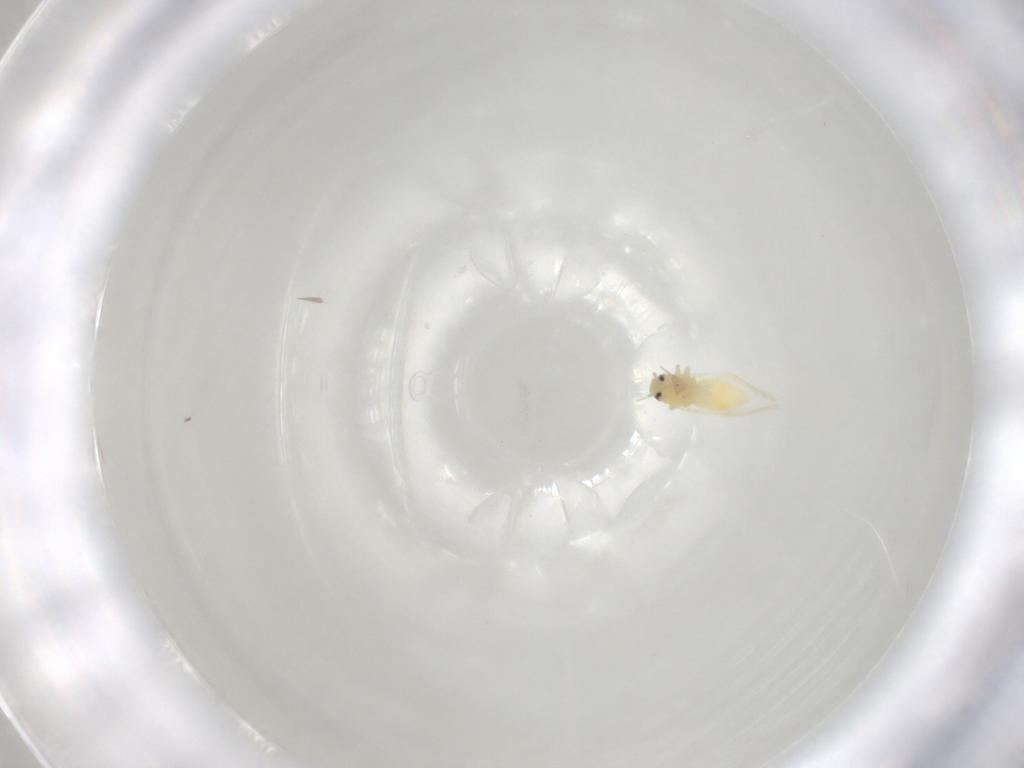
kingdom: Animalia
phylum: Arthropoda
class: Insecta
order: Hemiptera
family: Aleyrodidae
